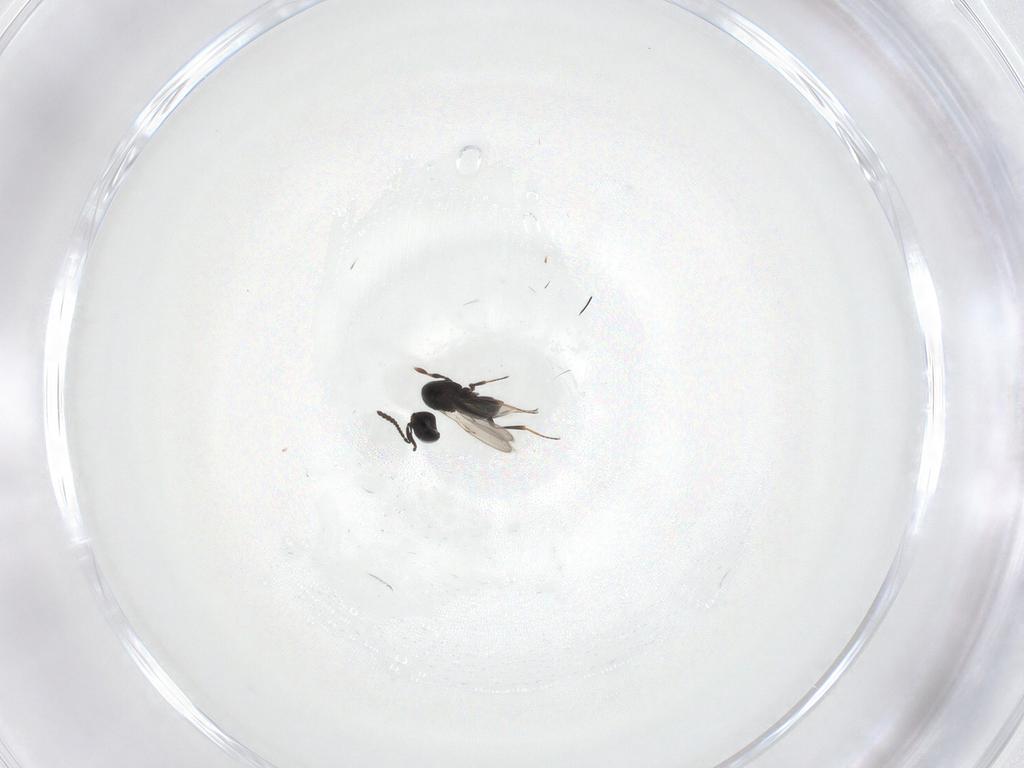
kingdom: Animalia
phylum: Arthropoda
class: Insecta
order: Hymenoptera
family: Scelionidae
